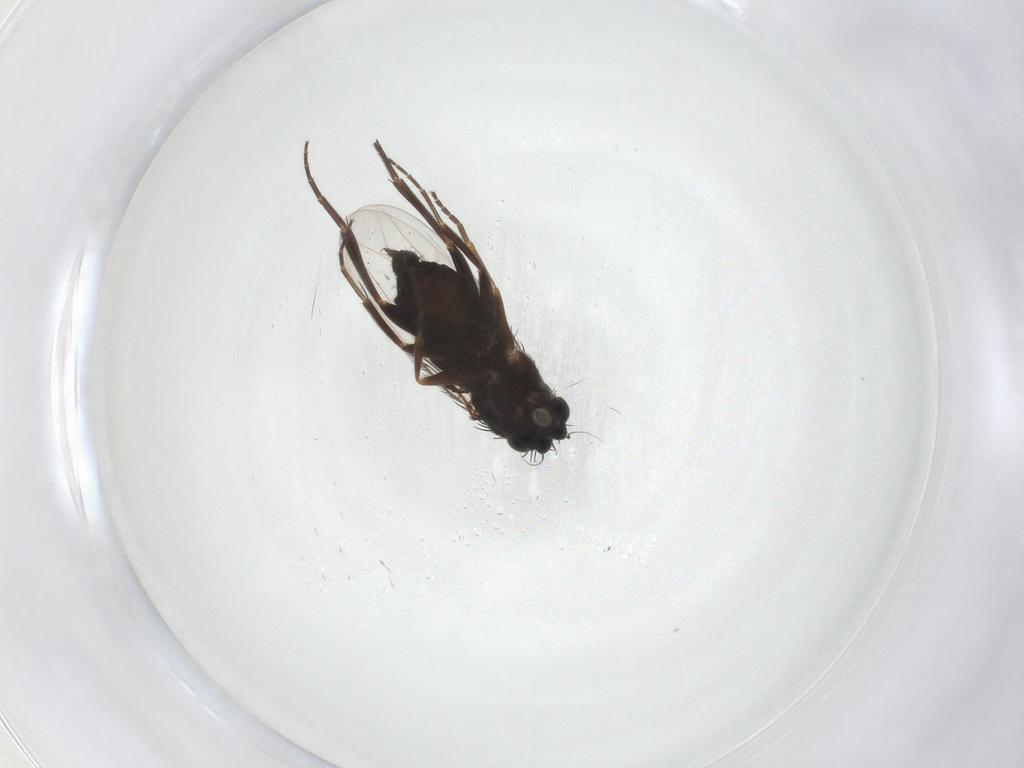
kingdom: Animalia
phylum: Arthropoda
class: Insecta
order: Diptera
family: Phoridae
